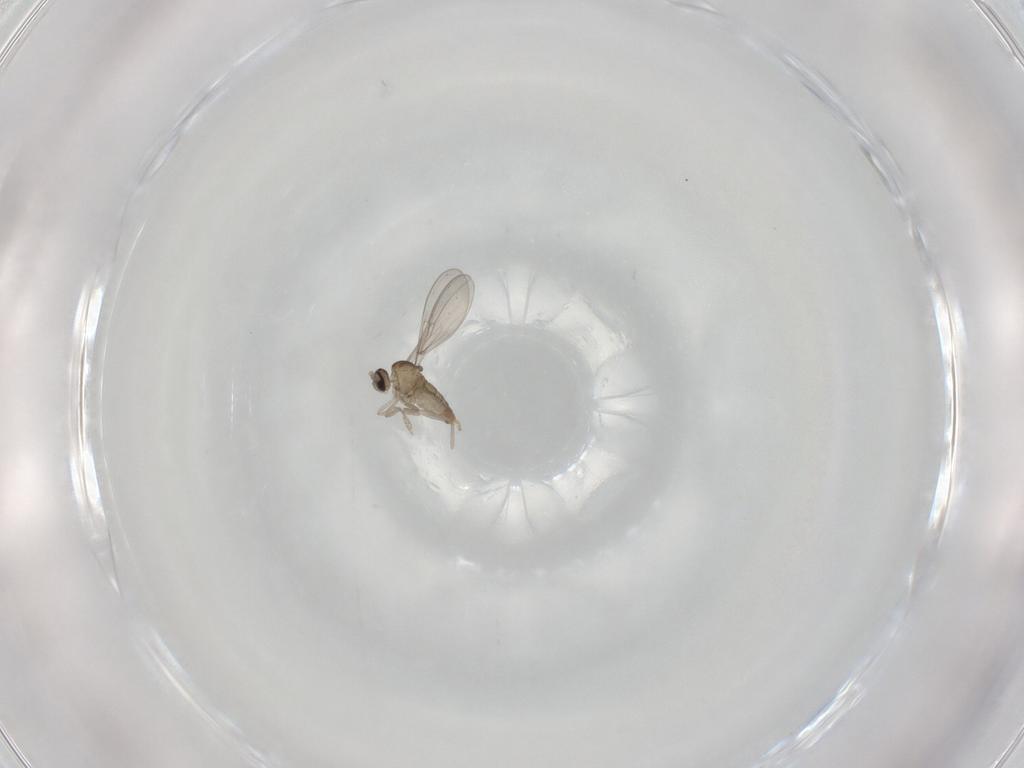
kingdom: Animalia
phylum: Arthropoda
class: Insecta
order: Diptera
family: Cecidomyiidae
